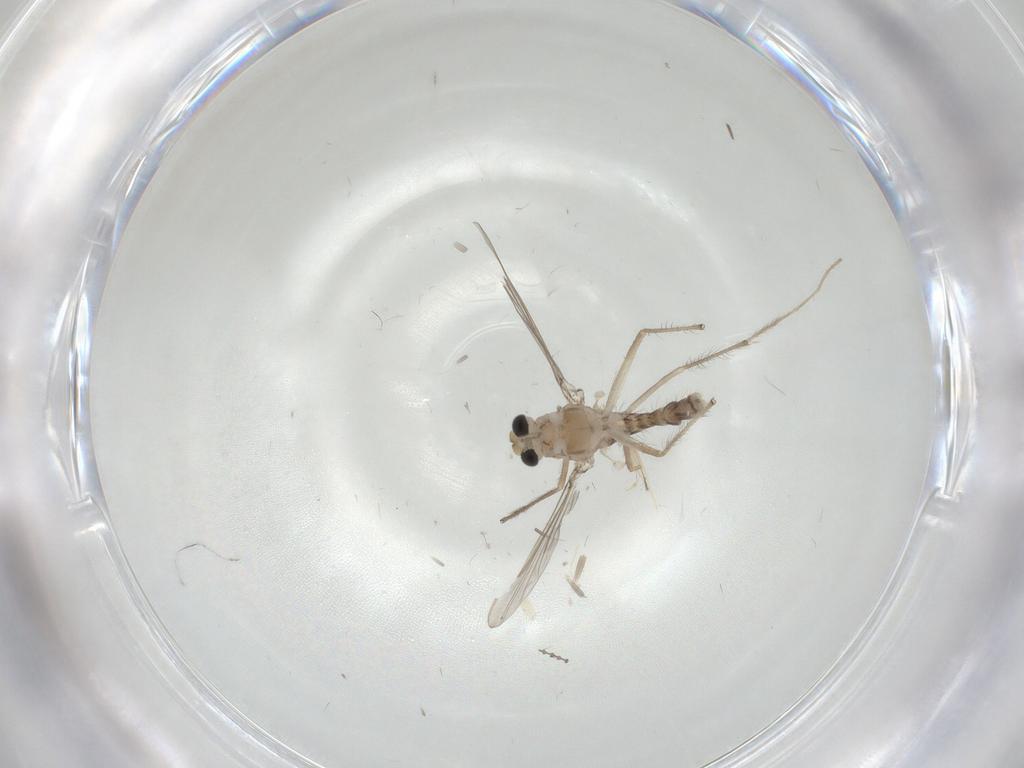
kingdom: Animalia
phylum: Arthropoda
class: Insecta
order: Diptera
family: Chironomidae
